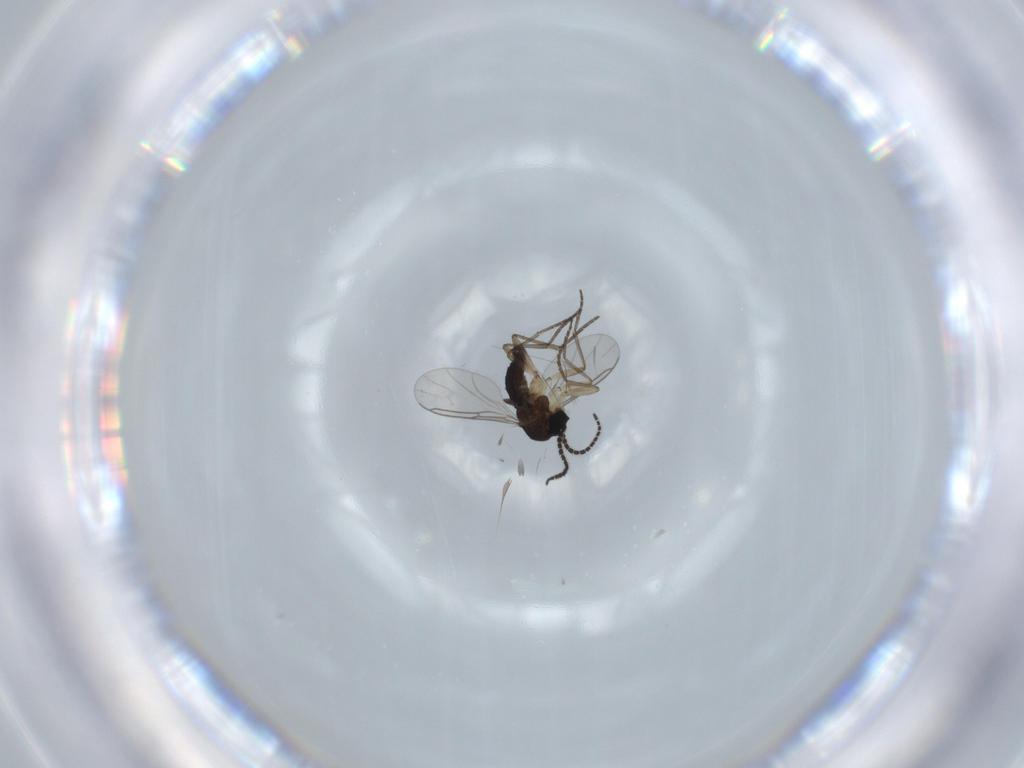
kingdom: Animalia
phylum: Arthropoda
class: Insecta
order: Diptera
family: Sciaridae
